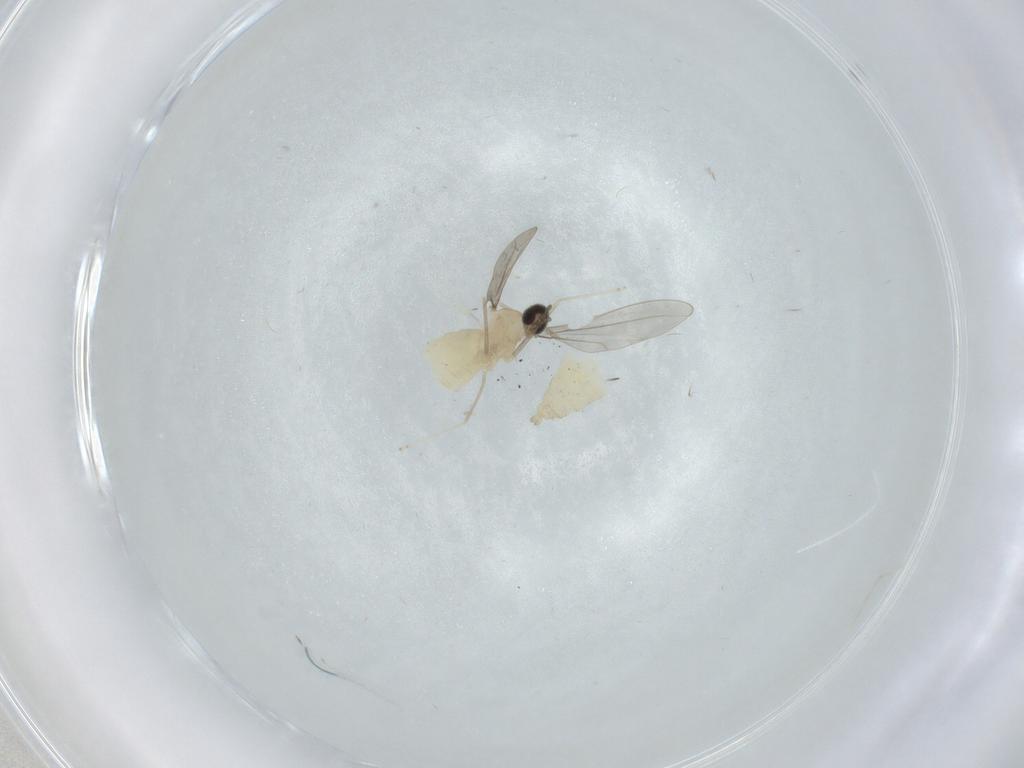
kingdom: Animalia
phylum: Arthropoda
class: Insecta
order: Diptera
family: Cecidomyiidae
